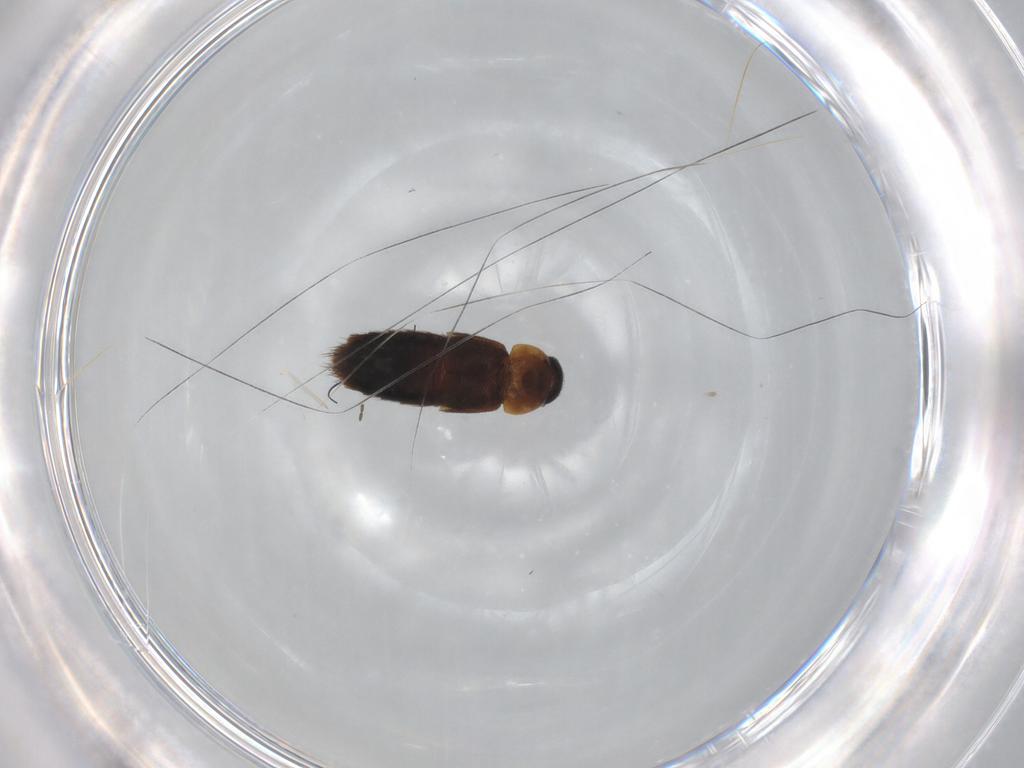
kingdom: Animalia
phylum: Arthropoda
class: Insecta
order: Coleoptera
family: Staphylinidae
